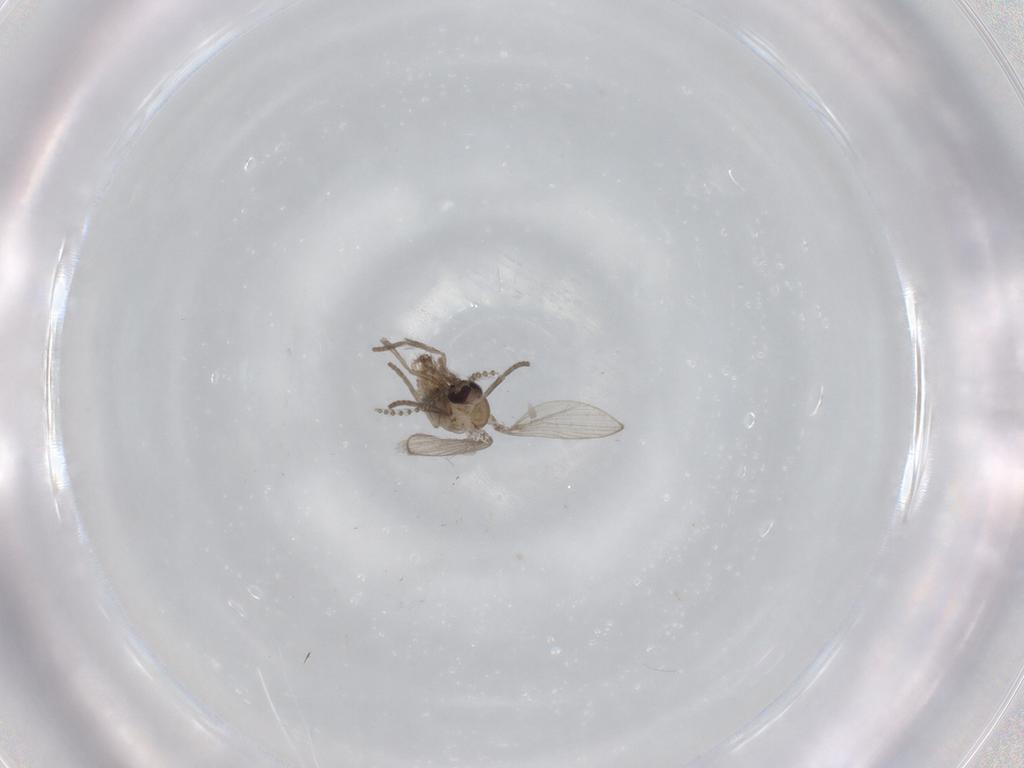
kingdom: Animalia
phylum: Arthropoda
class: Insecta
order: Diptera
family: Psychodidae
